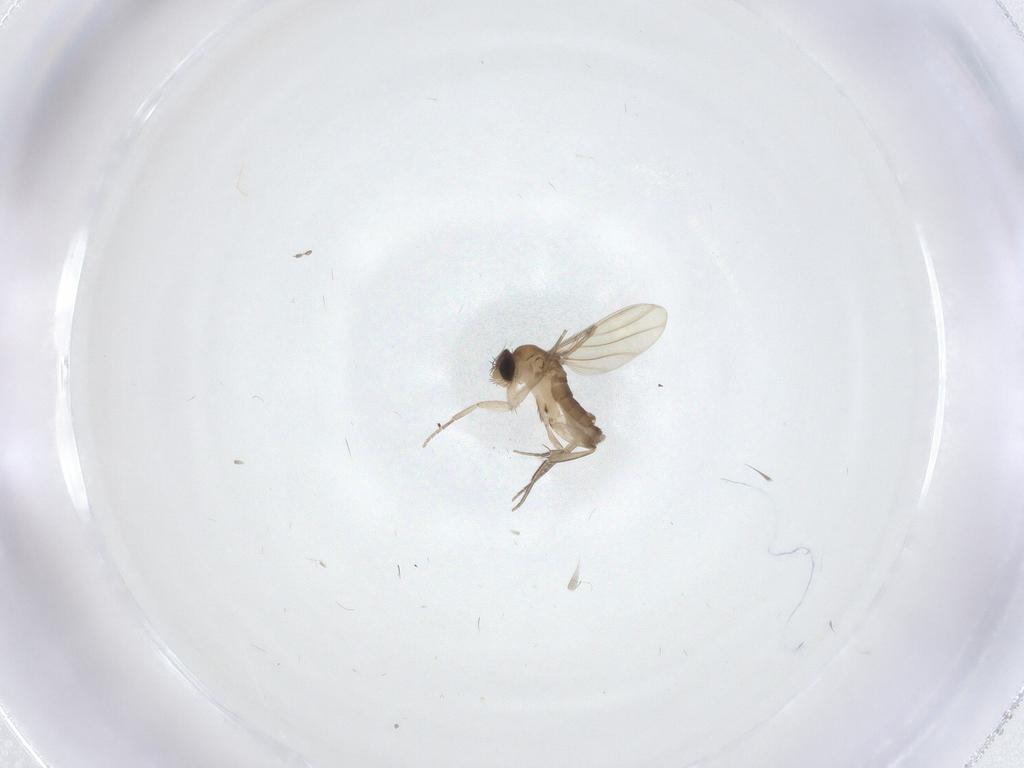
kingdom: Animalia
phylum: Arthropoda
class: Insecta
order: Diptera
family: Phoridae
